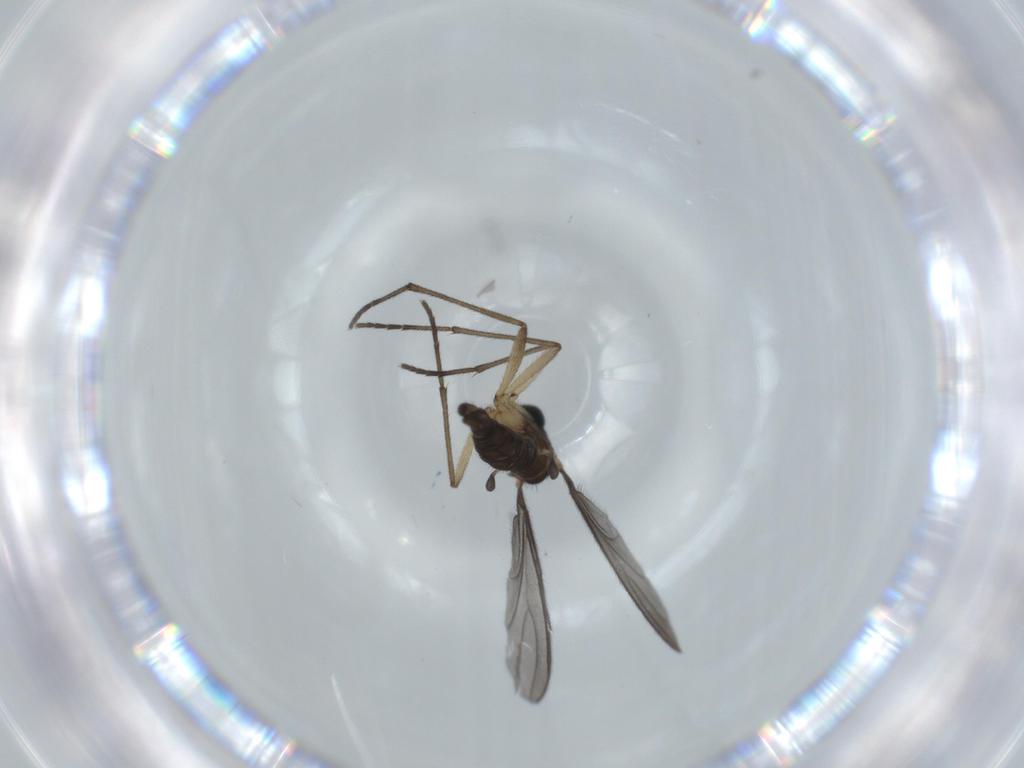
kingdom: Animalia
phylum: Arthropoda
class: Insecta
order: Diptera
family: Sciaridae
